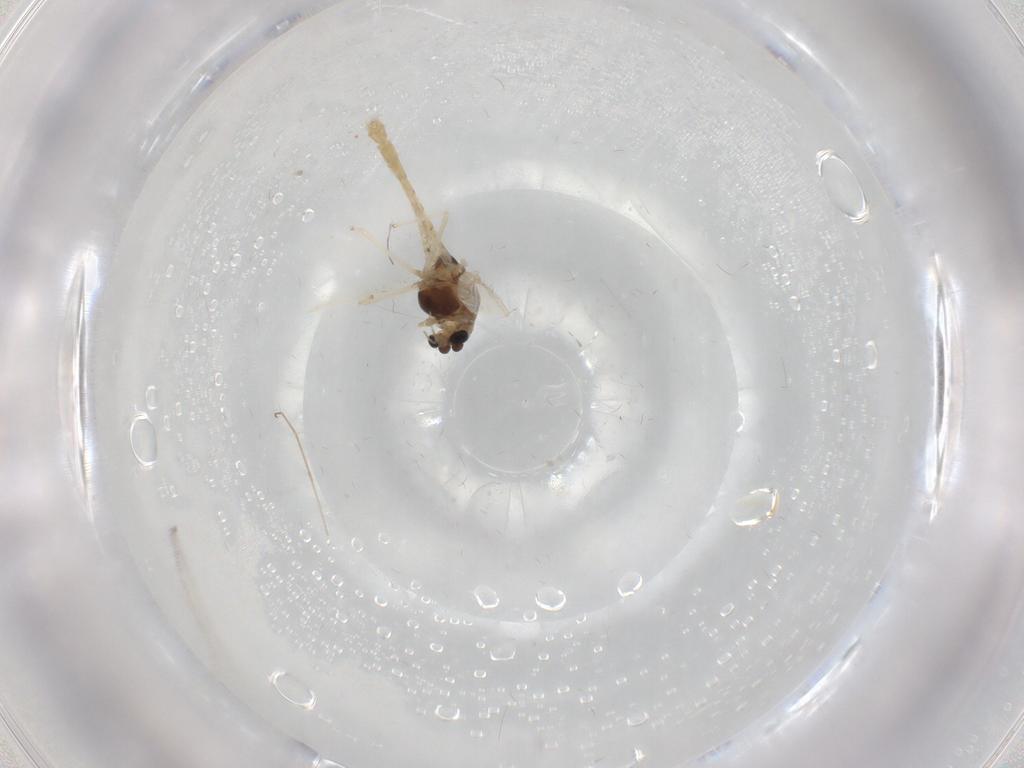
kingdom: Animalia
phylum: Arthropoda
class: Insecta
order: Diptera
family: Chironomidae
